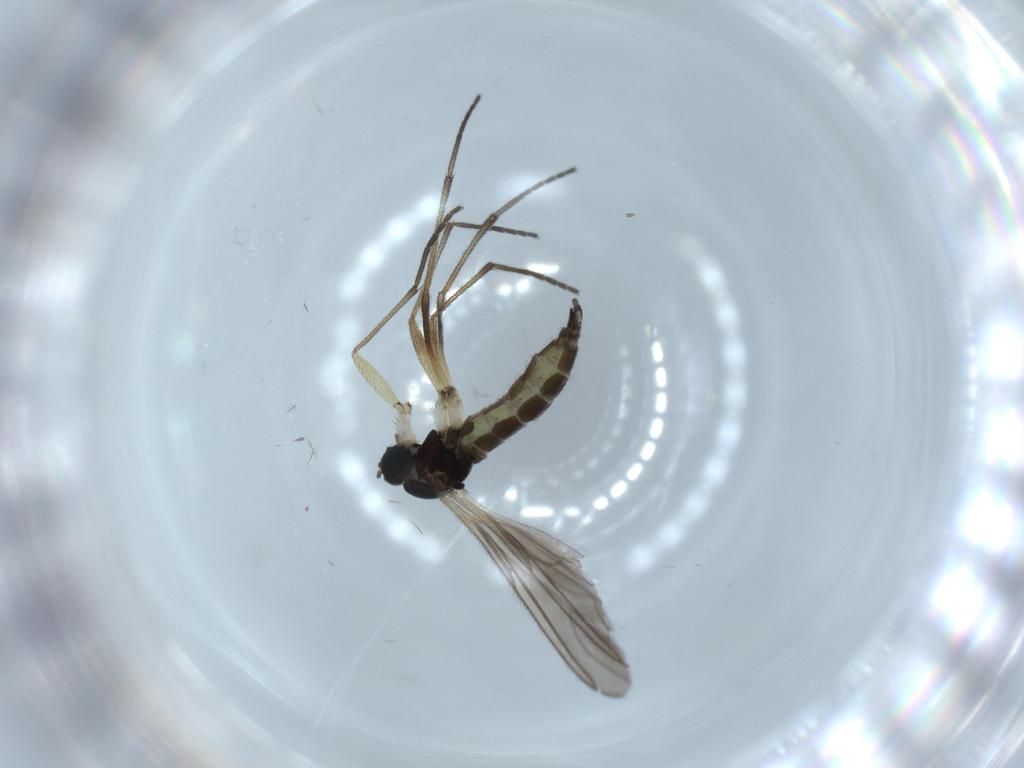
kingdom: Animalia
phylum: Arthropoda
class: Insecta
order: Diptera
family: Sciaridae
